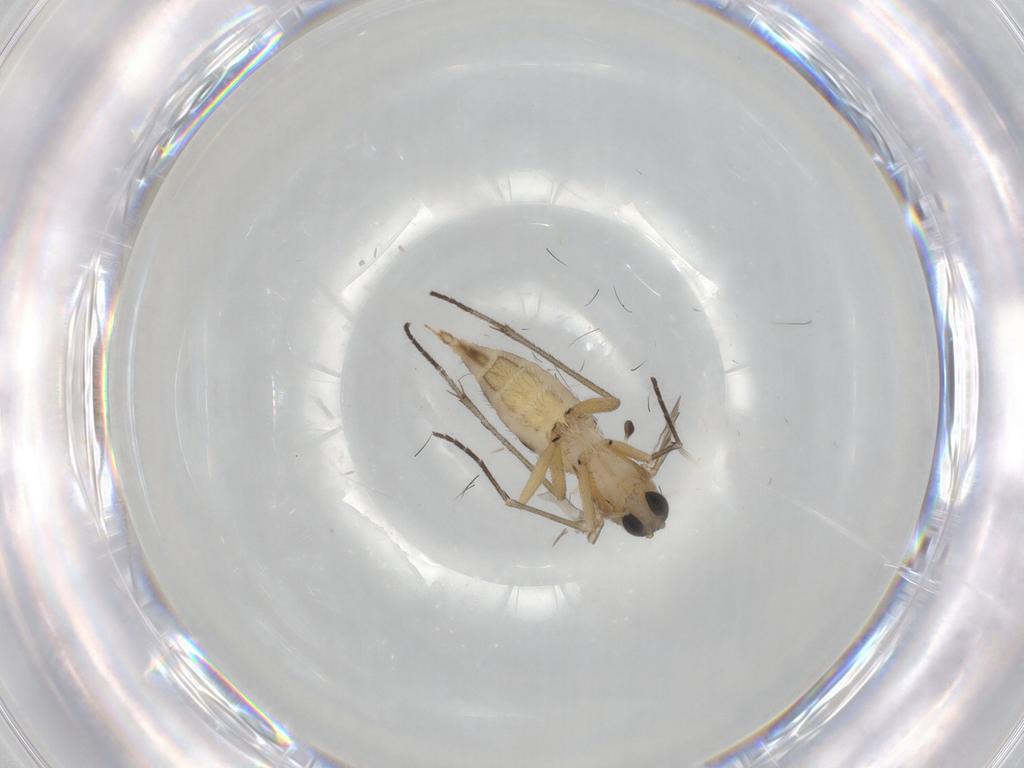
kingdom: Animalia
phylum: Arthropoda
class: Insecta
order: Diptera
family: Sciaridae
